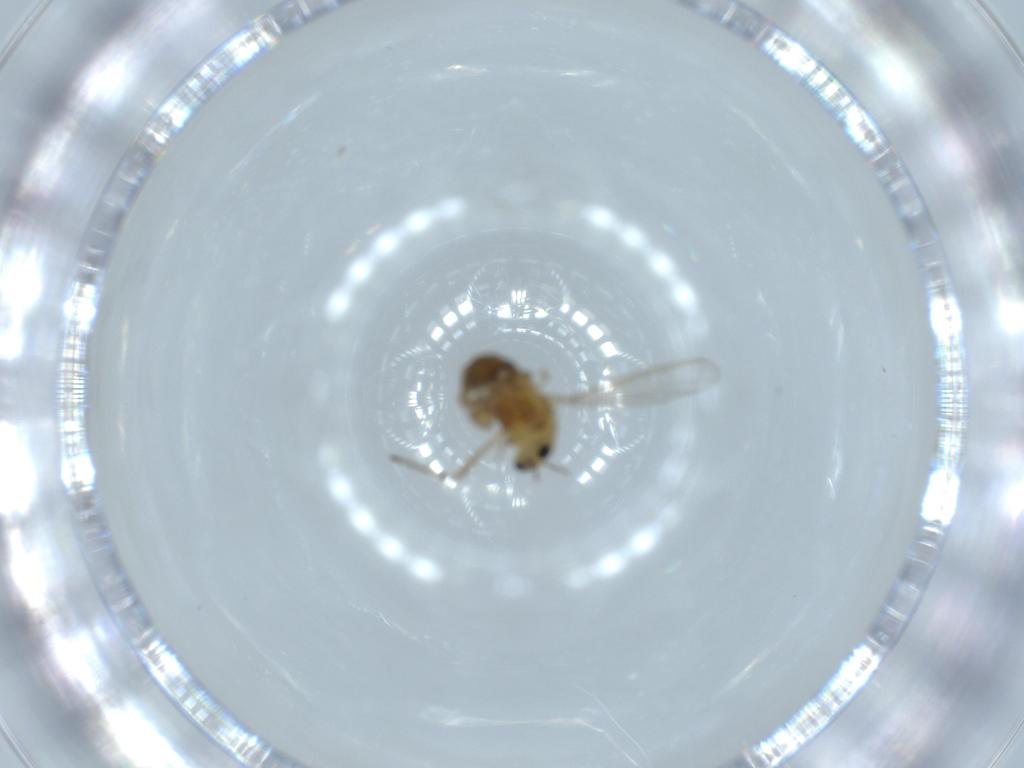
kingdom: Animalia
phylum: Arthropoda
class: Insecta
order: Diptera
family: Chironomidae
